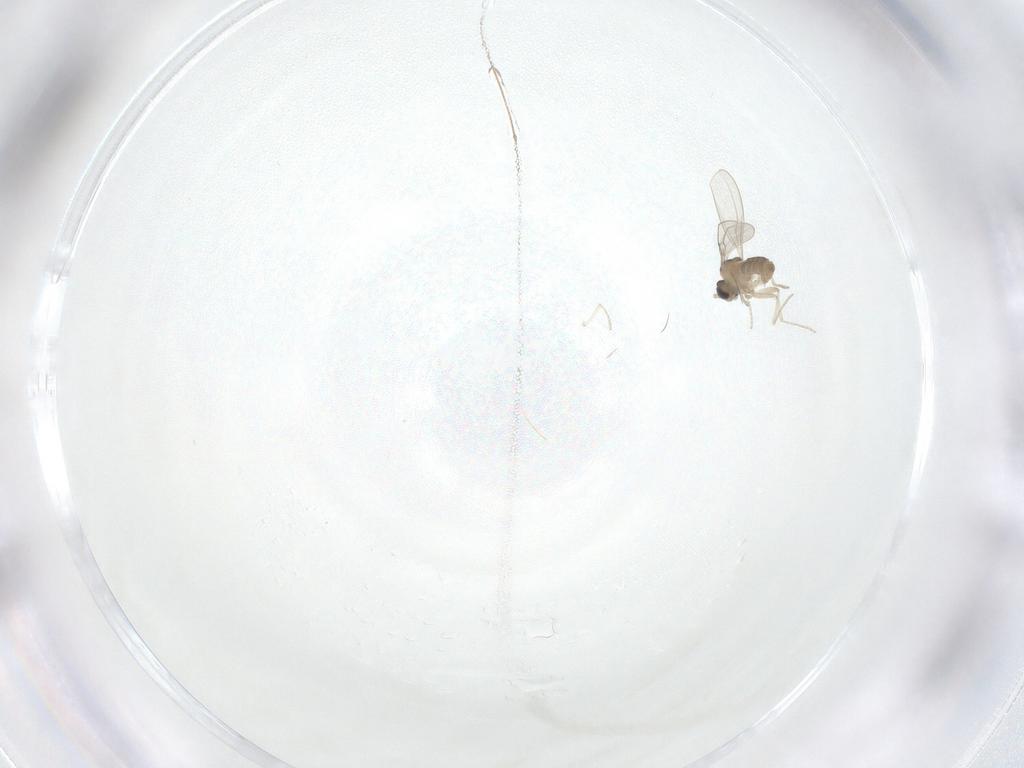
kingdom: Animalia
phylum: Arthropoda
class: Insecta
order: Diptera
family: Cecidomyiidae
